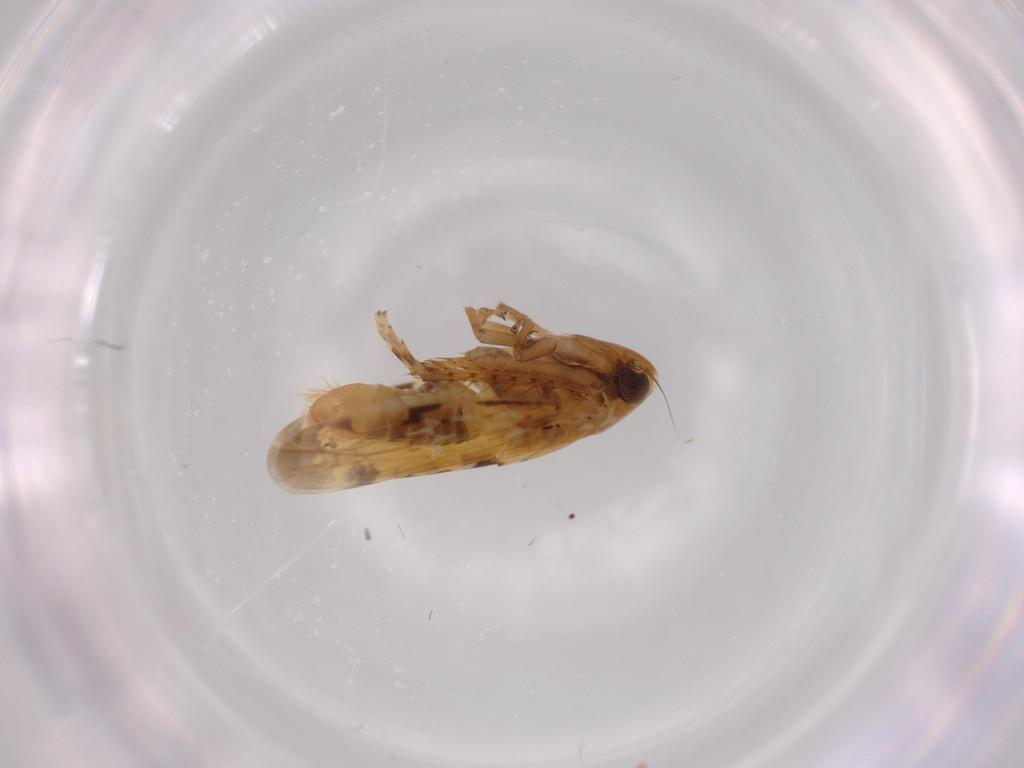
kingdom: Animalia
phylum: Arthropoda
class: Insecta
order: Hemiptera
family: Cicadellidae
